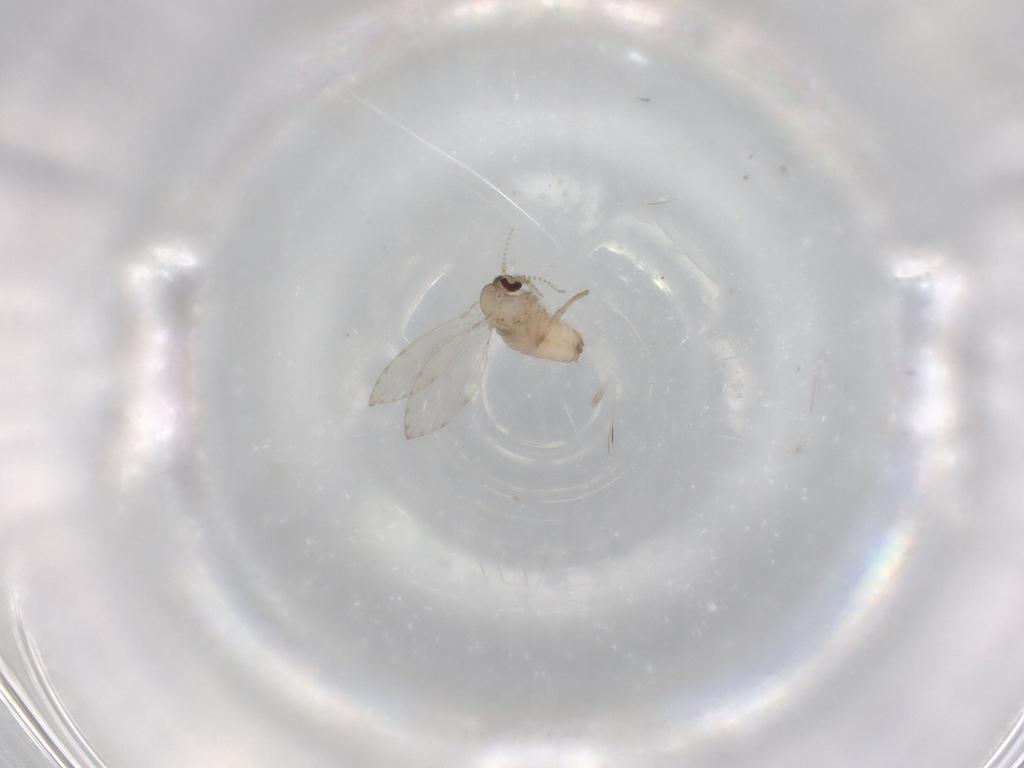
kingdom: Animalia
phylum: Arthropoda
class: Insecta
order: Diptera
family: Psychodidae
